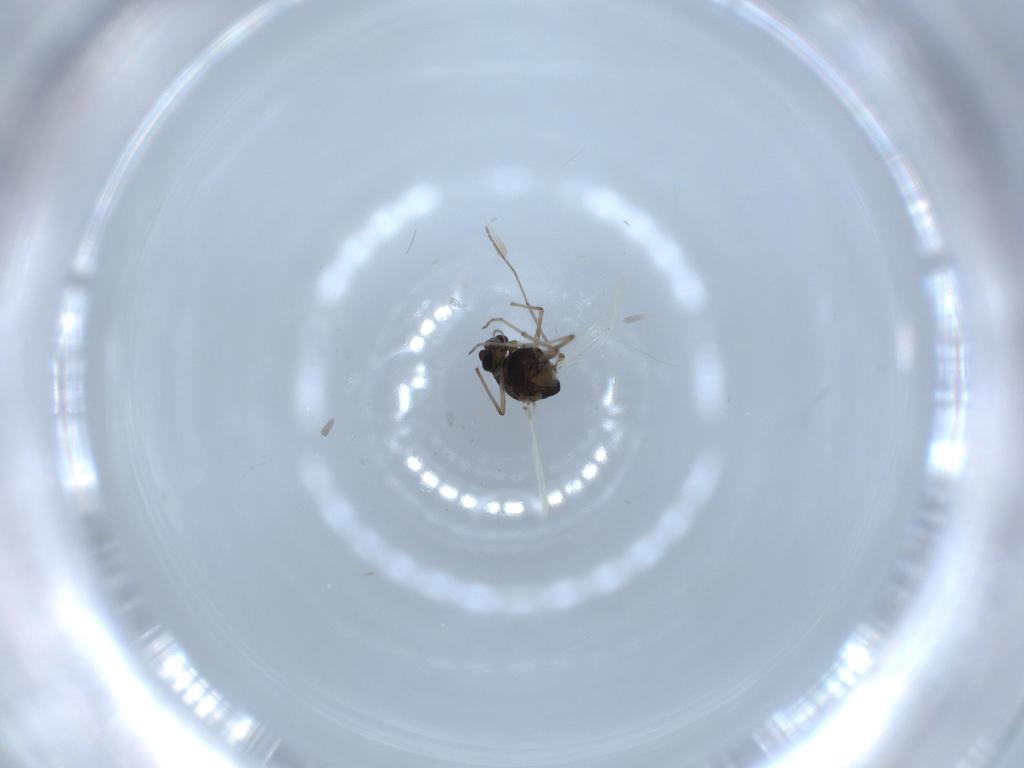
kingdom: Animalia
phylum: Arthropoda
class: Insecta
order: Diptera
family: Chironomidae
